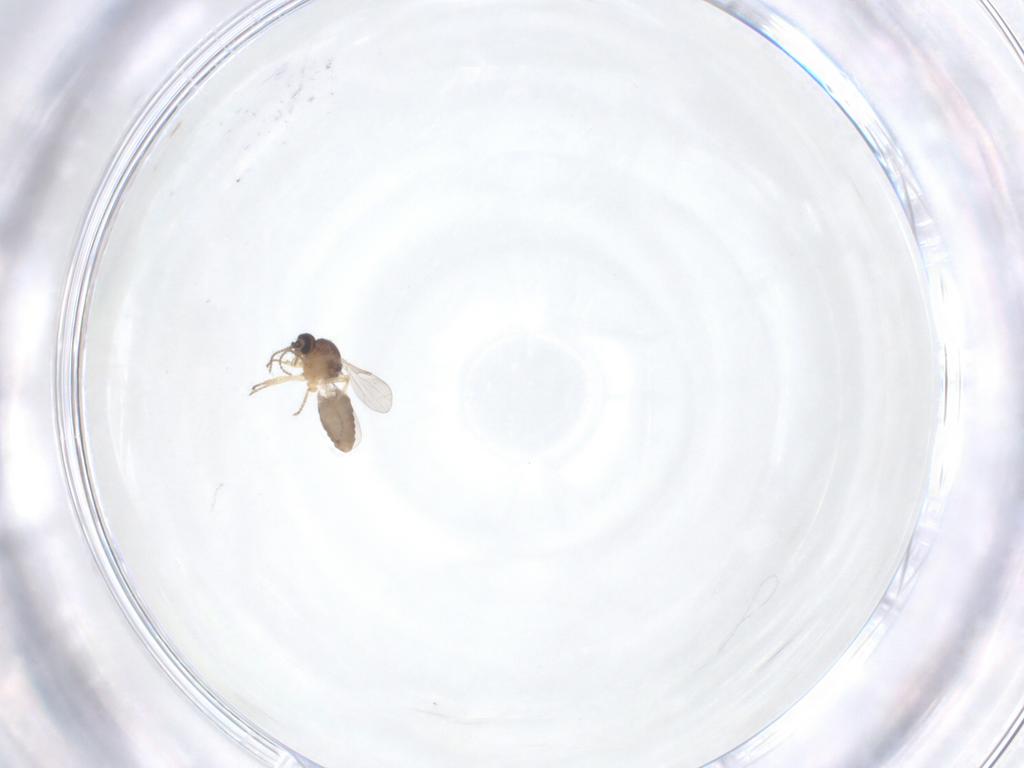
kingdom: Animalia
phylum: Arthropoda
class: Insecta
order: Diptera
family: Ceratopogonidae
